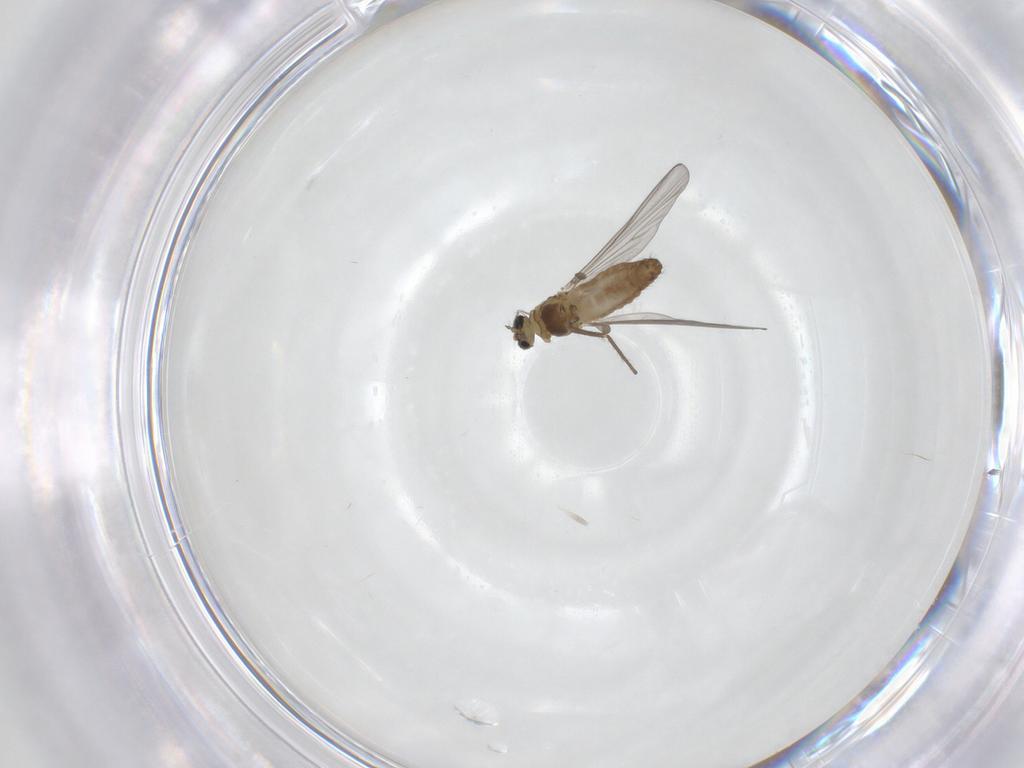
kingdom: Animalia
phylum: Arthropoda
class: Insecta
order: Diptera
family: Chironomidae
